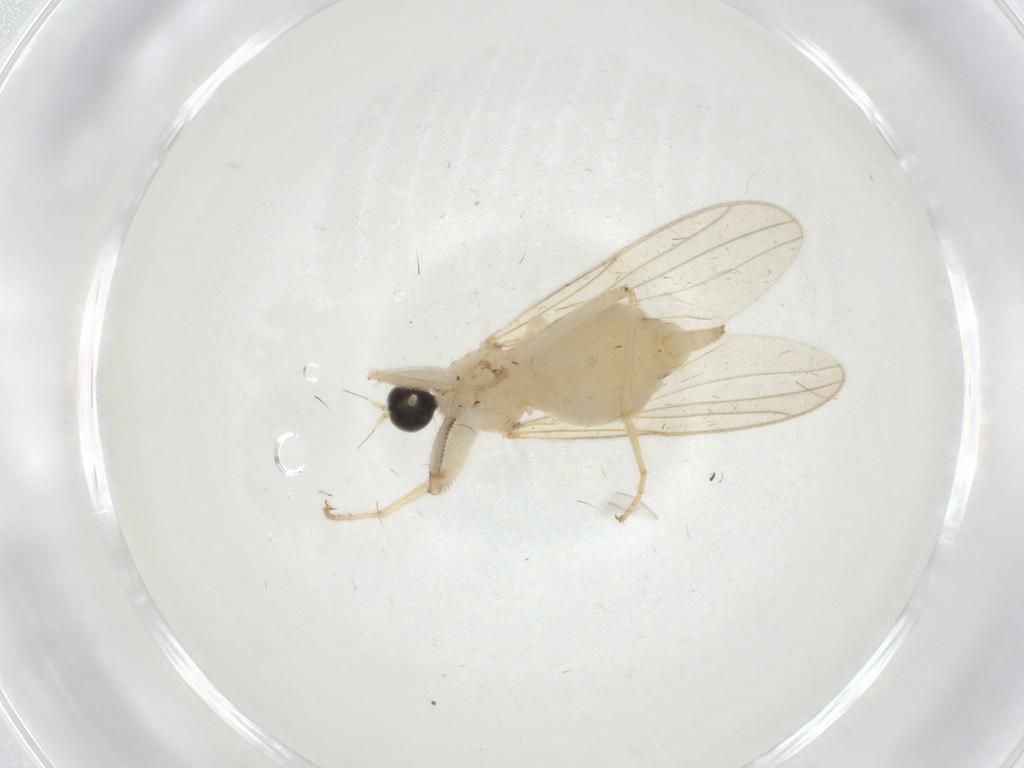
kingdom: Animalia
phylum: Arthropoda
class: Insecta
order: Diptera
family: Hybotidae
